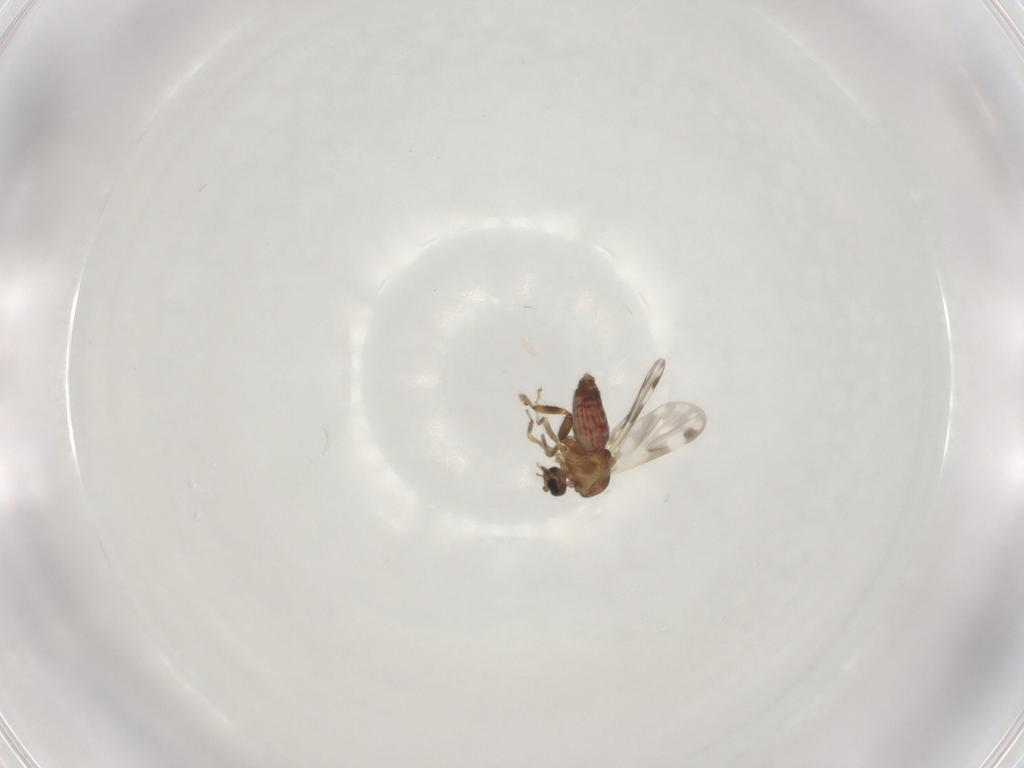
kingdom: Animalia
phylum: Arthropoda
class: Insecta
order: Diptera
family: Ceratopogonidae
